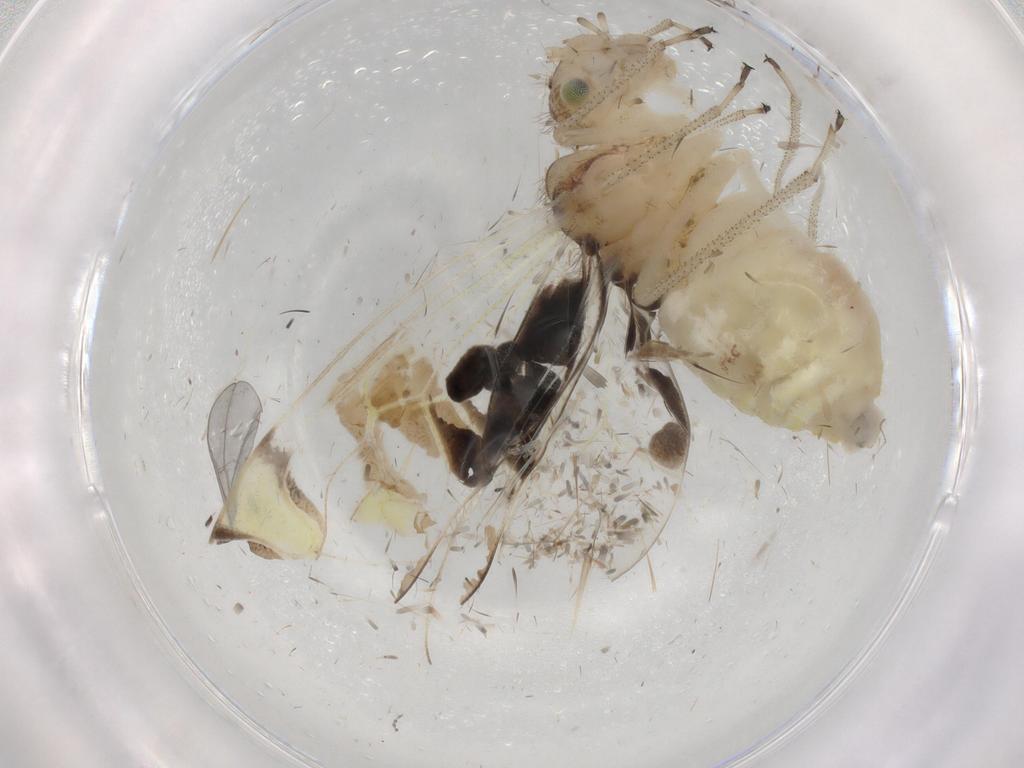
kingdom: Animalia
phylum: Arthropoda
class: Insecta
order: Psocodea
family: Amphipsocidae
